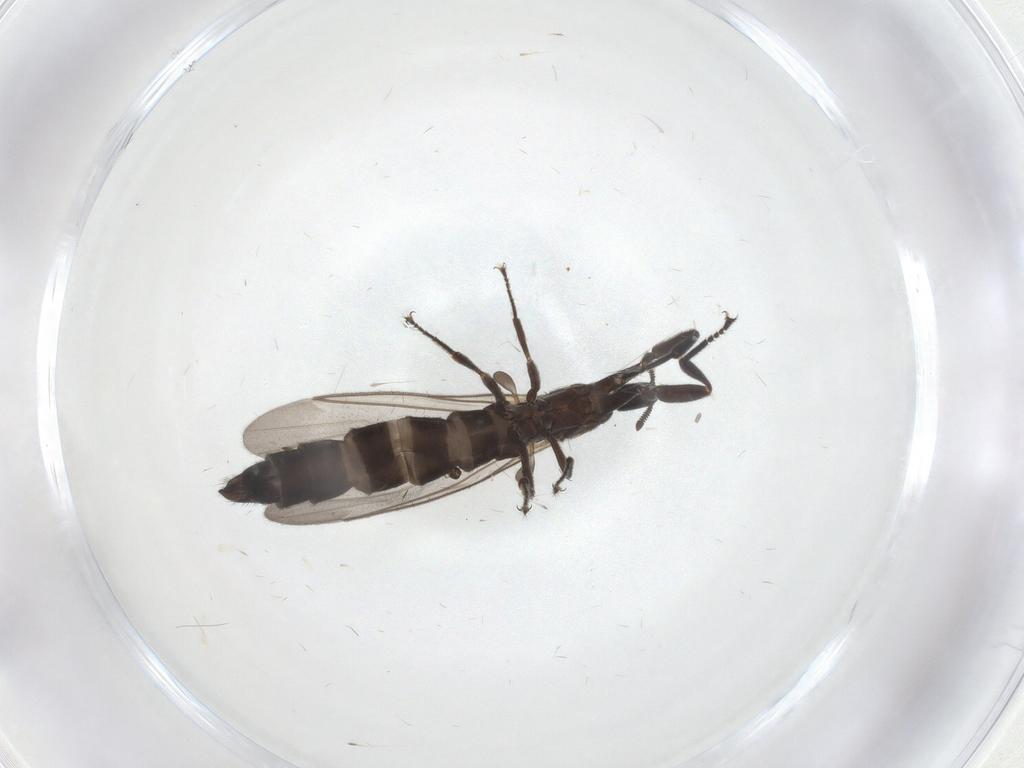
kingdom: Animalia
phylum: Arthropoda
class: Insecta
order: Diptera
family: Scatopsidae
